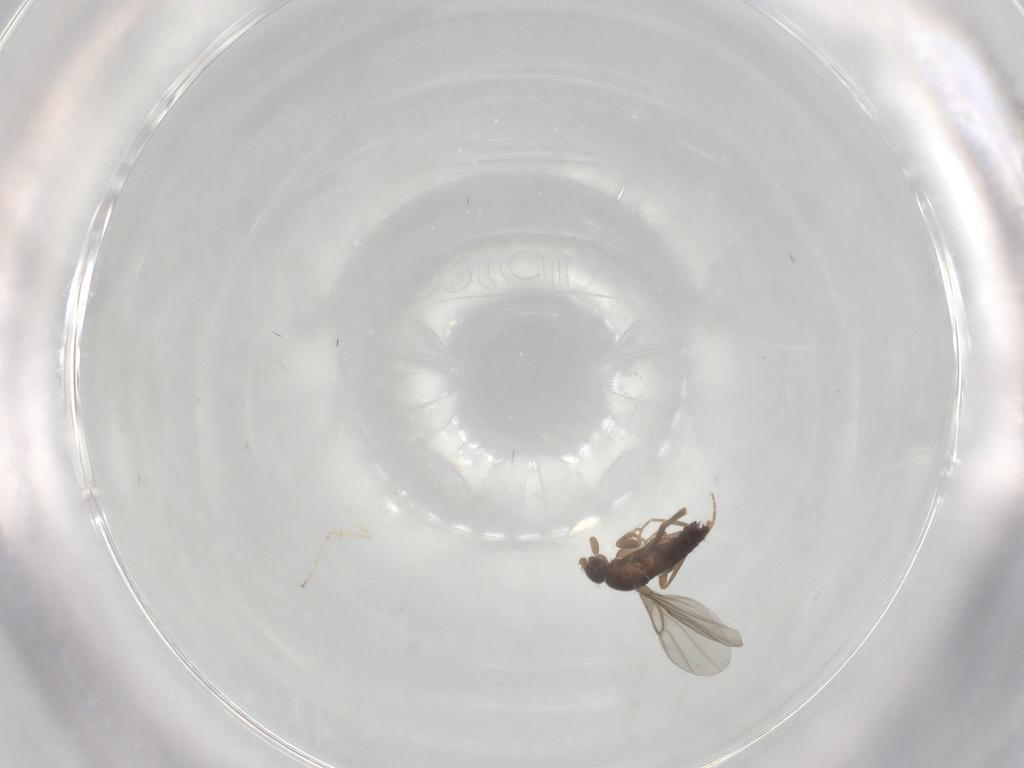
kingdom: Animalia
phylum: Arthropoda
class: Insecta
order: Diptera
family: Phoridae
